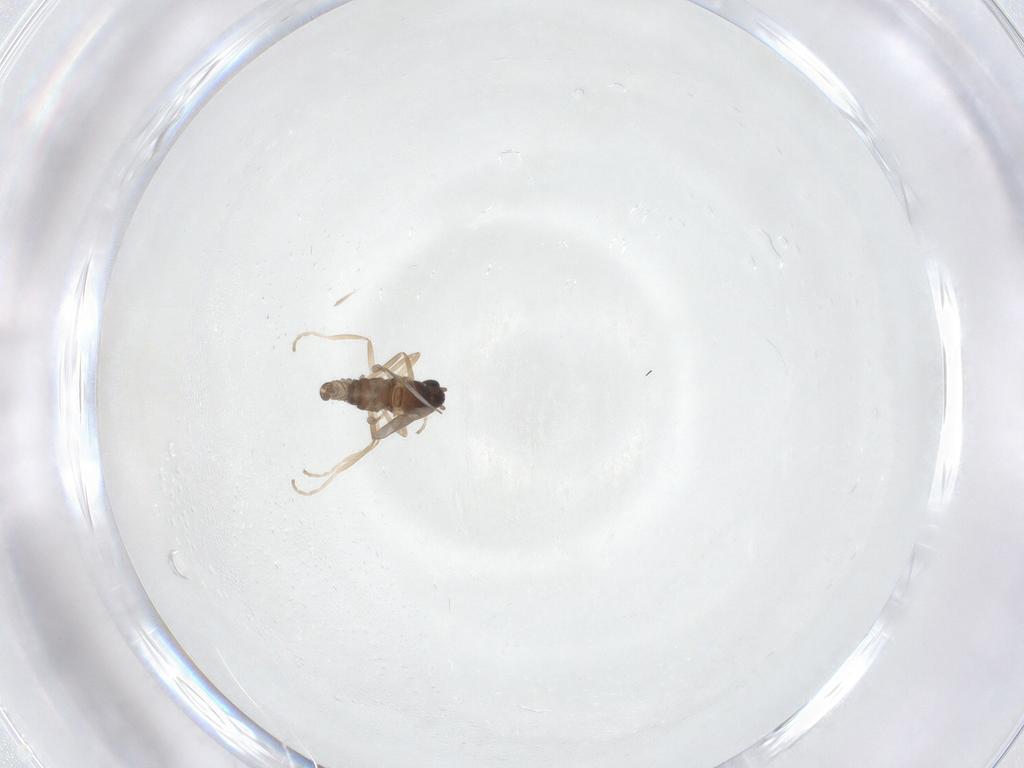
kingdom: Animalia
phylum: Arthropoda
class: Insecta
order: Diptera
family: Cecidomyiidae
